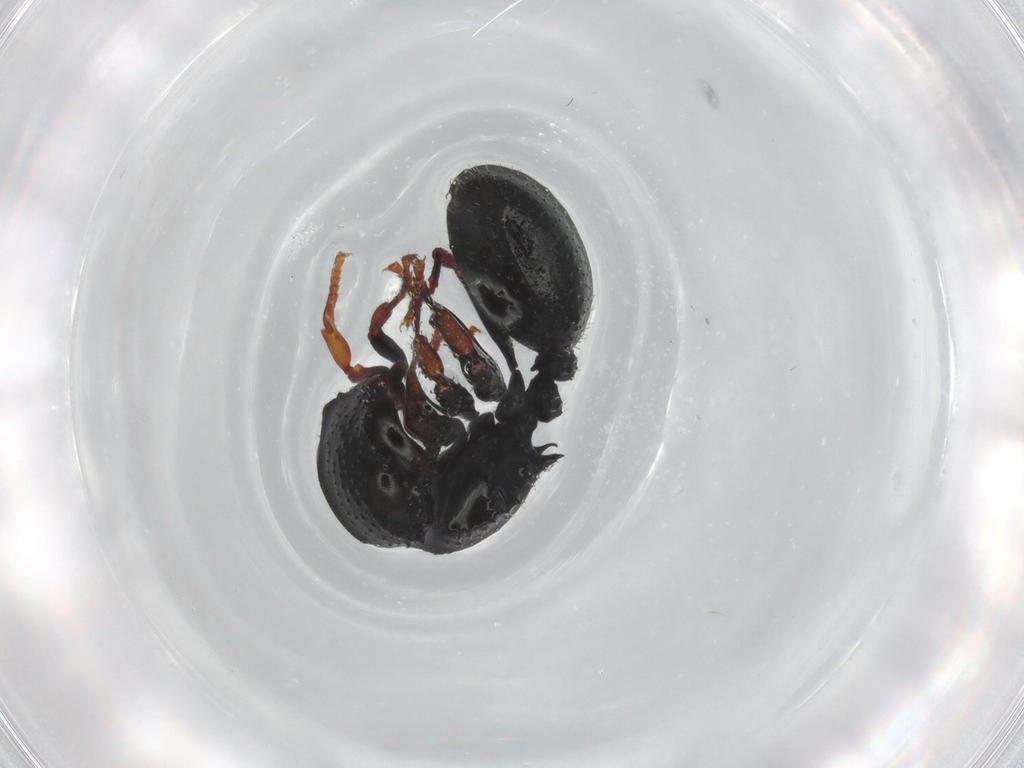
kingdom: Animalia
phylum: Arthropoda
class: Insecta
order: Hymenoptera
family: Formicidae
